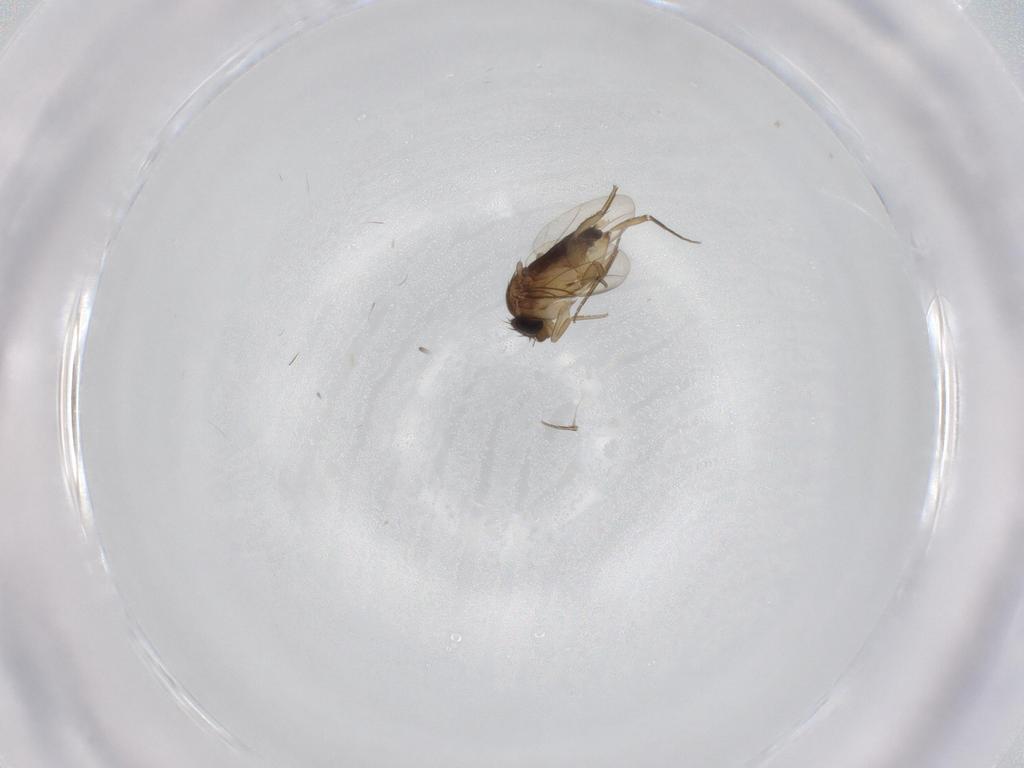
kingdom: Animalia
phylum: Arthropoda
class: Insecta
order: Diptera
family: Phoridae
